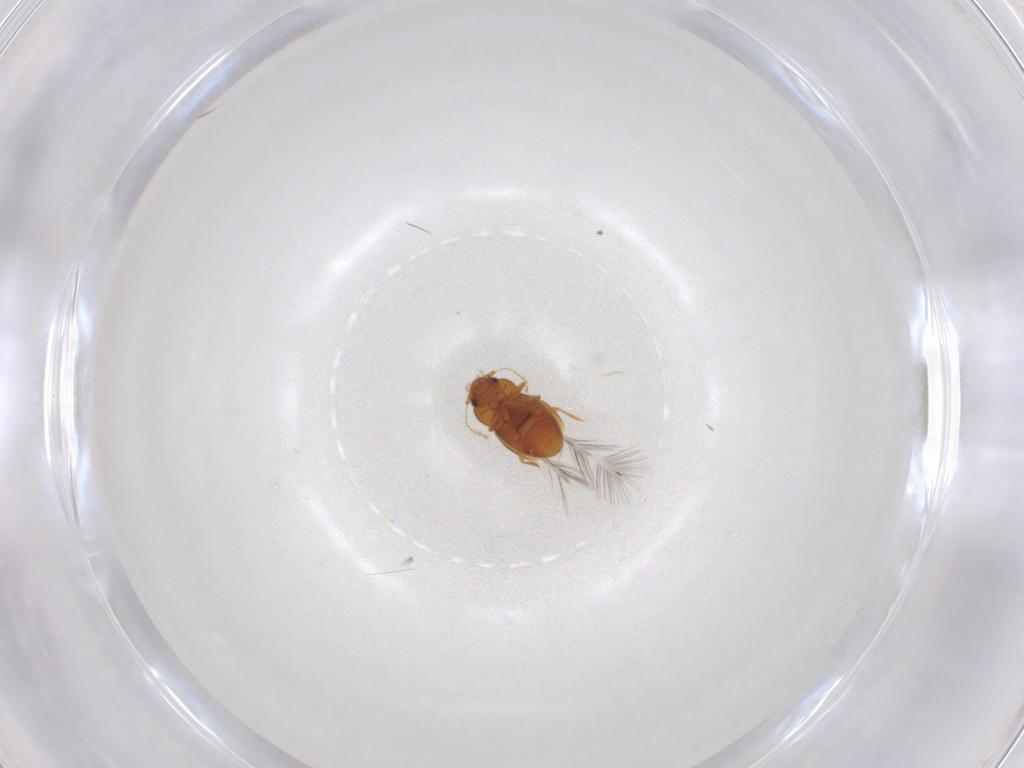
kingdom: Animalia
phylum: Arthropoda
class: Insecta
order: Coleoptera
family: Ptiliidae
